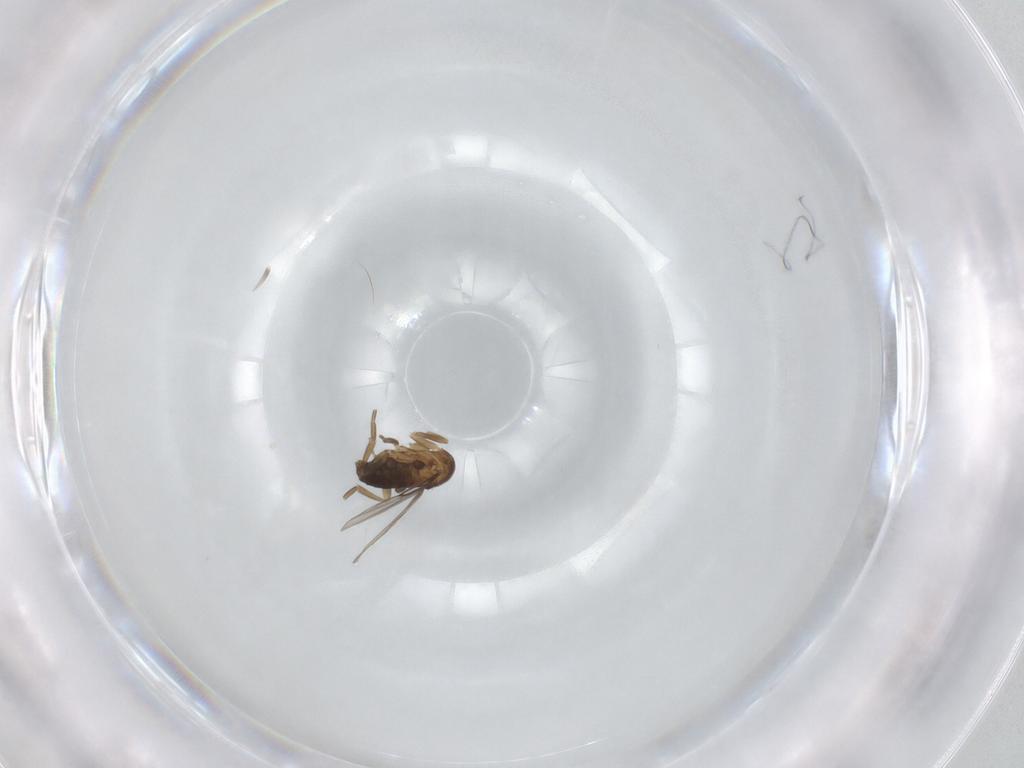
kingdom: Animalia
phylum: Arthropoda
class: Insecta
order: Diptera
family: Phoridae
